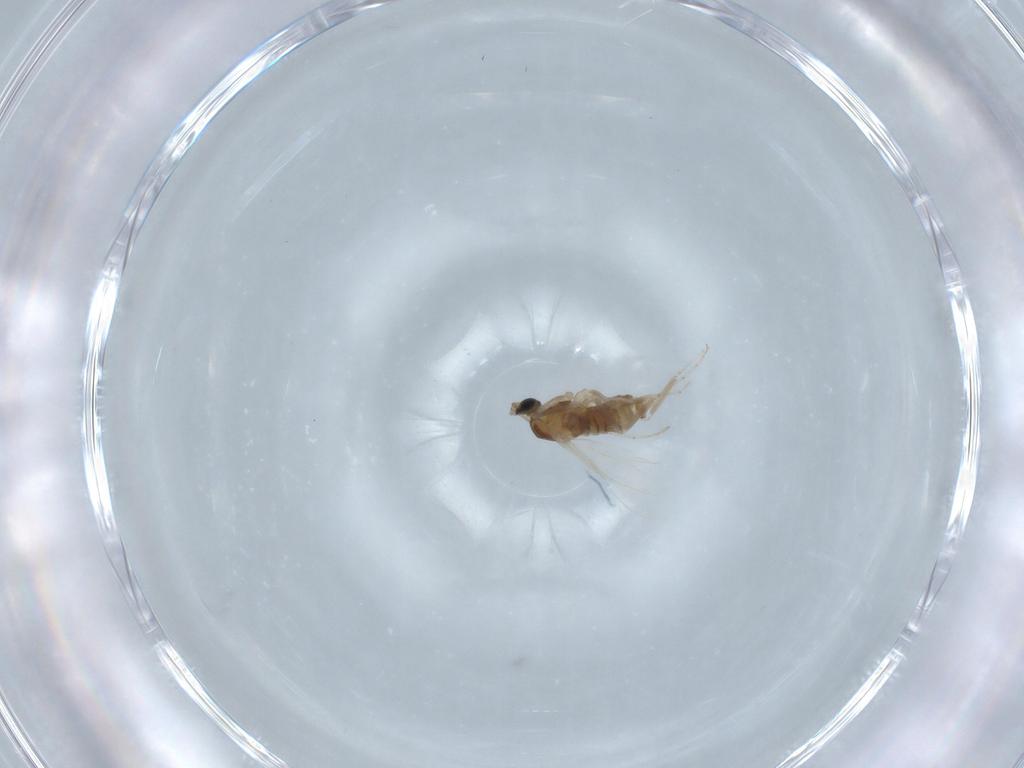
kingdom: Animalia
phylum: Arthropoda
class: Insecta
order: Diptera
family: Cecidomyiidae
